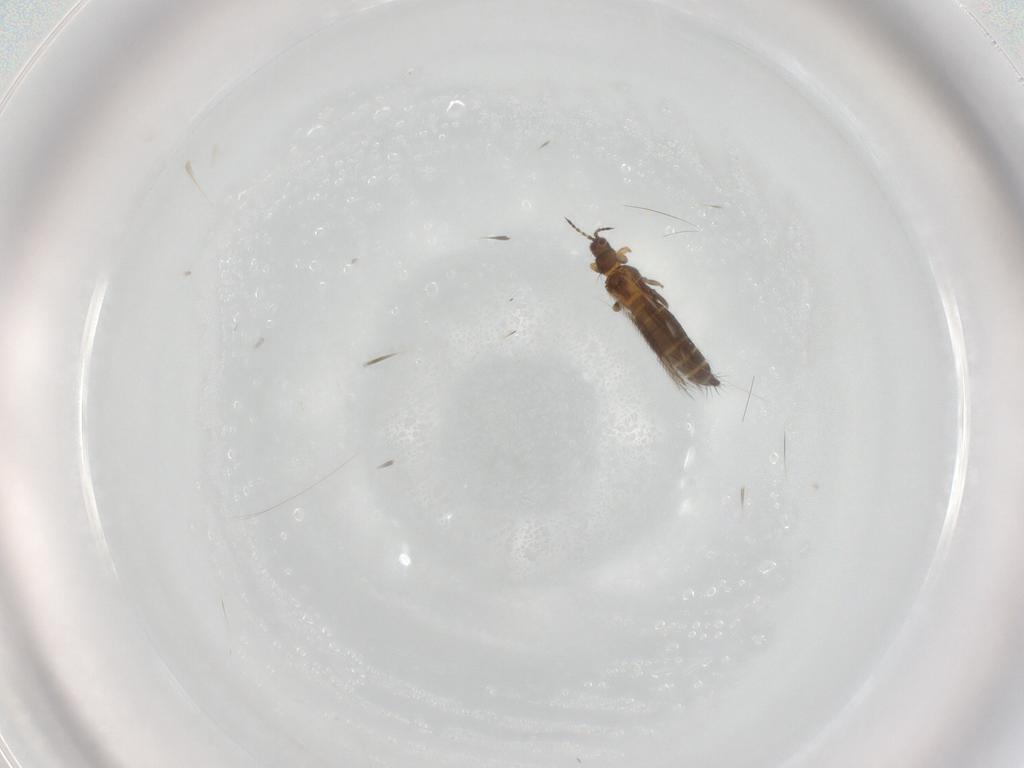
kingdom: Animalia
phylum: Arthropoda
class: Insecta
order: Thysanoptera
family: Thripidae
